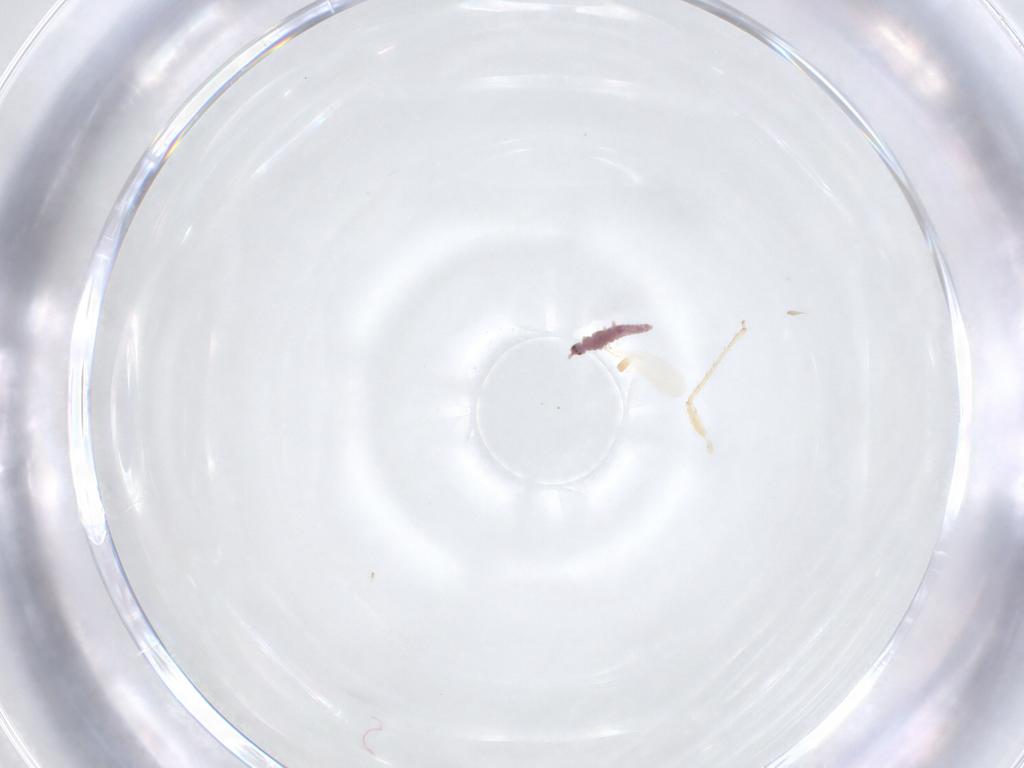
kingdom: Animalia
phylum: Arthropoda
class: Insecta
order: Hemiptera
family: Aphididae
